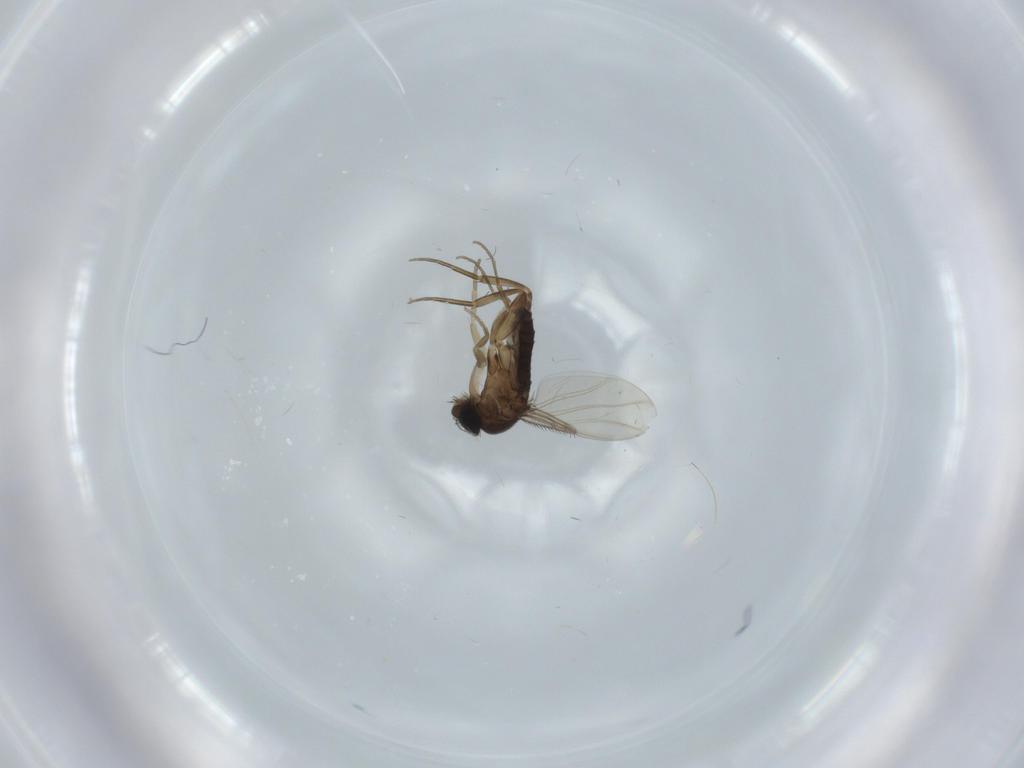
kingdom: Animalia
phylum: Arthropoda
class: Insecta
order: Diptera
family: Phoridae
